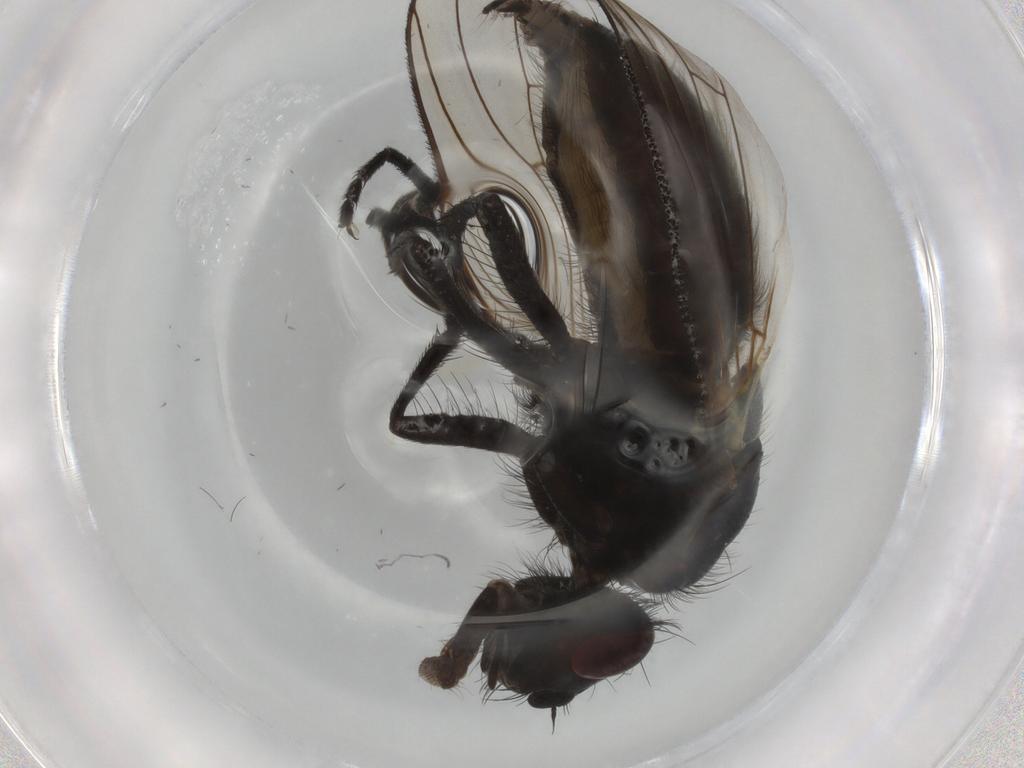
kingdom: Animalia
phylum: Arthropoda
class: Insecta
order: Diptera
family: Muscidae
